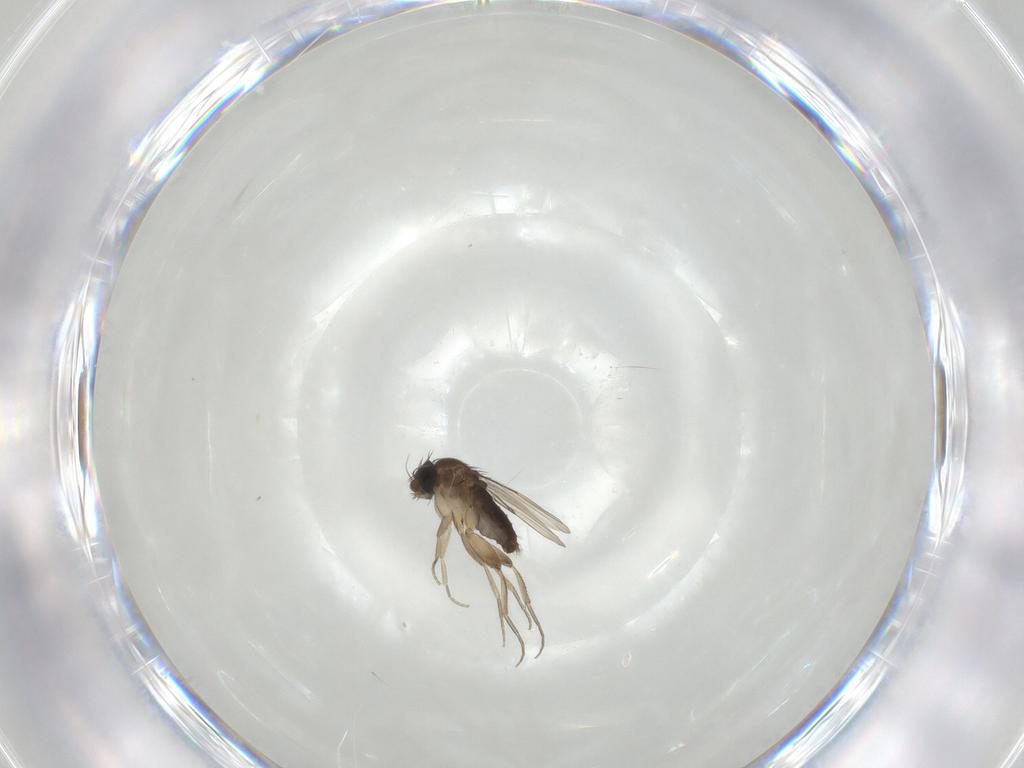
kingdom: Animalia
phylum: Arthropoda
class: Insecta
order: Diptera
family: Phoridae
